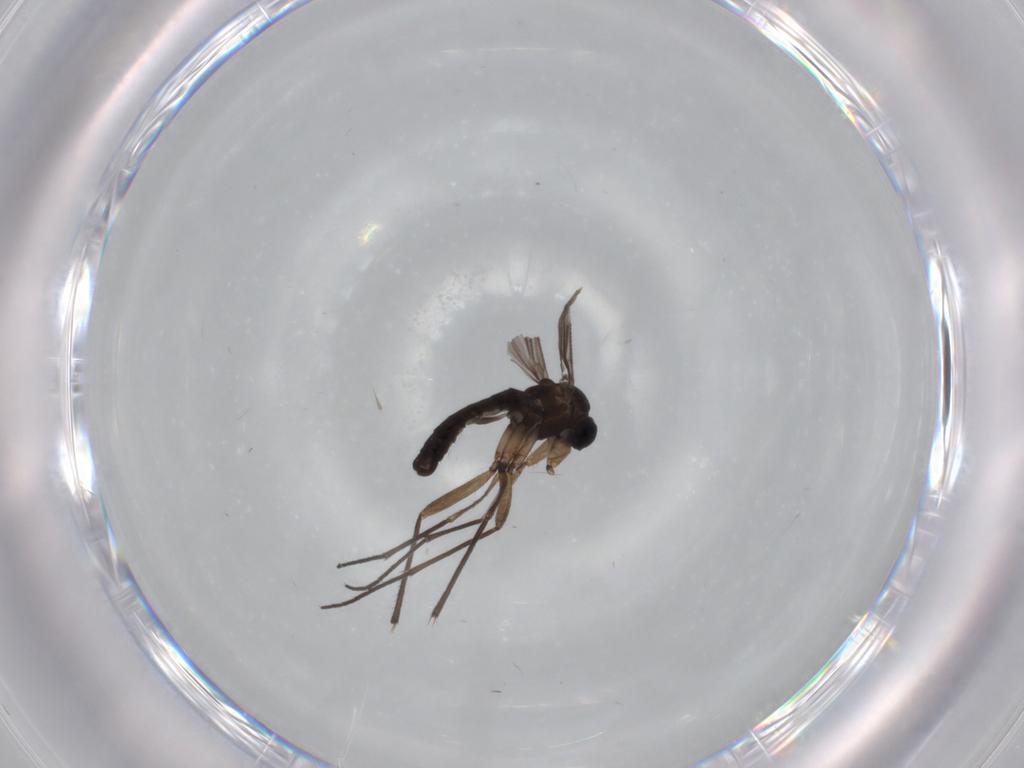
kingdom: Animalia
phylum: Arthropoda
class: Insecta
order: Diptera
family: Sciaridae
